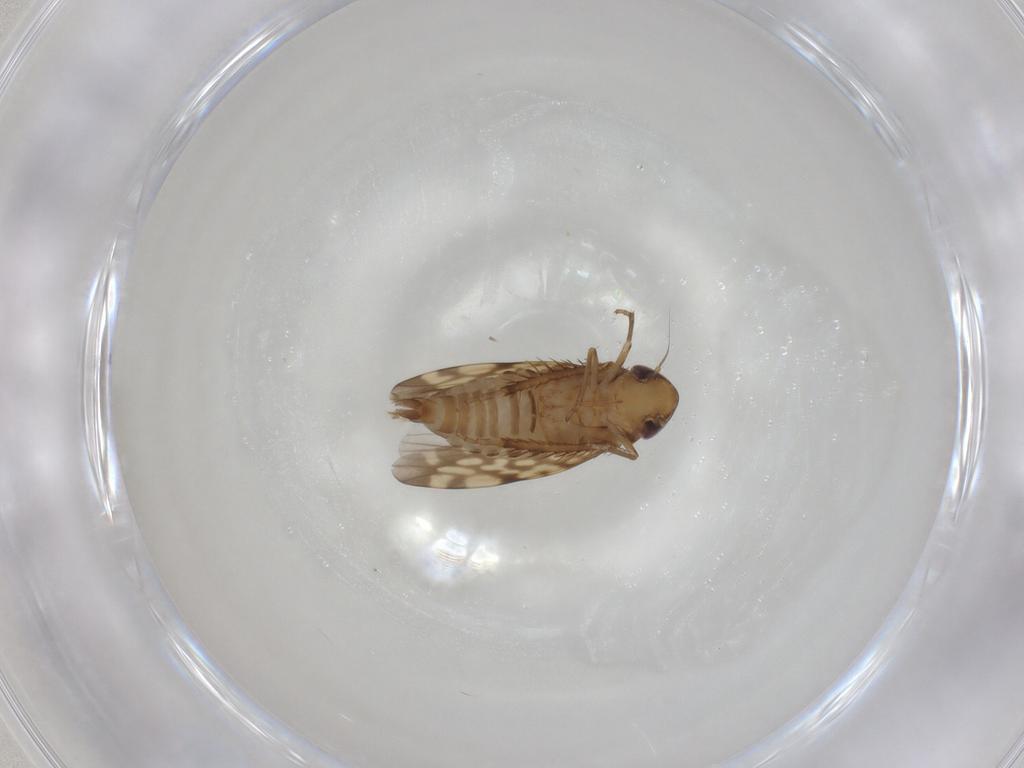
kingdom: Animalia
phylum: Arthropoda
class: Insecta
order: Hemiptera
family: Cicadellidae
